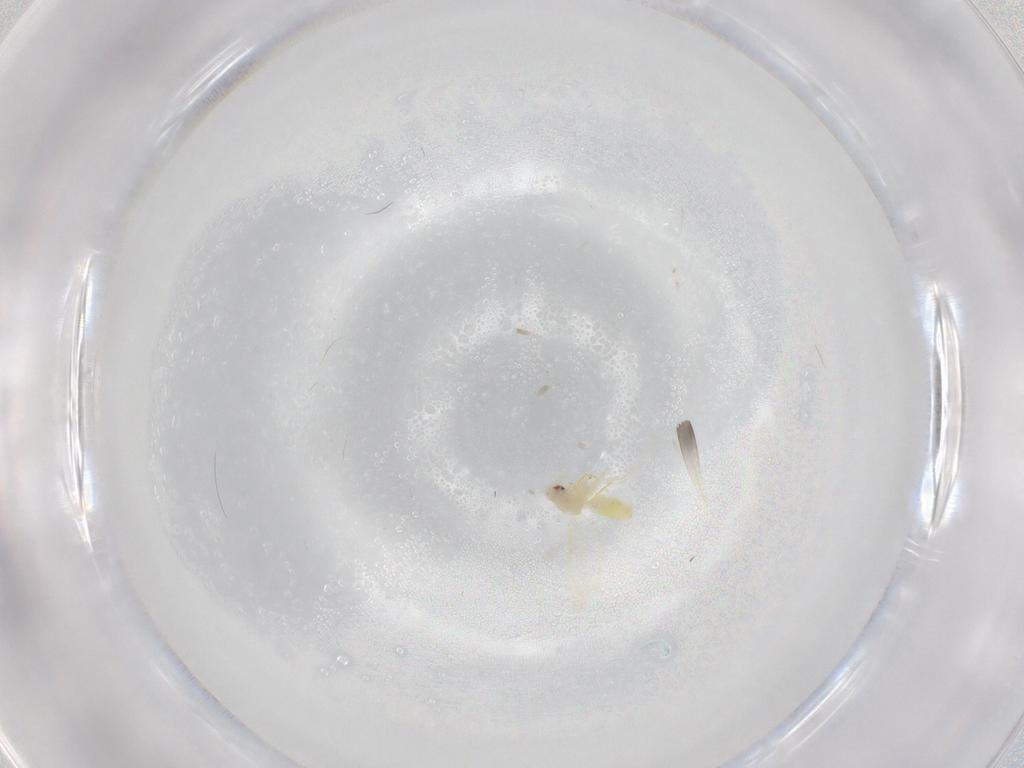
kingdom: Animalia
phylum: Arthropoda
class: Insecta
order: Hemiptera
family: Aleyrodidae
